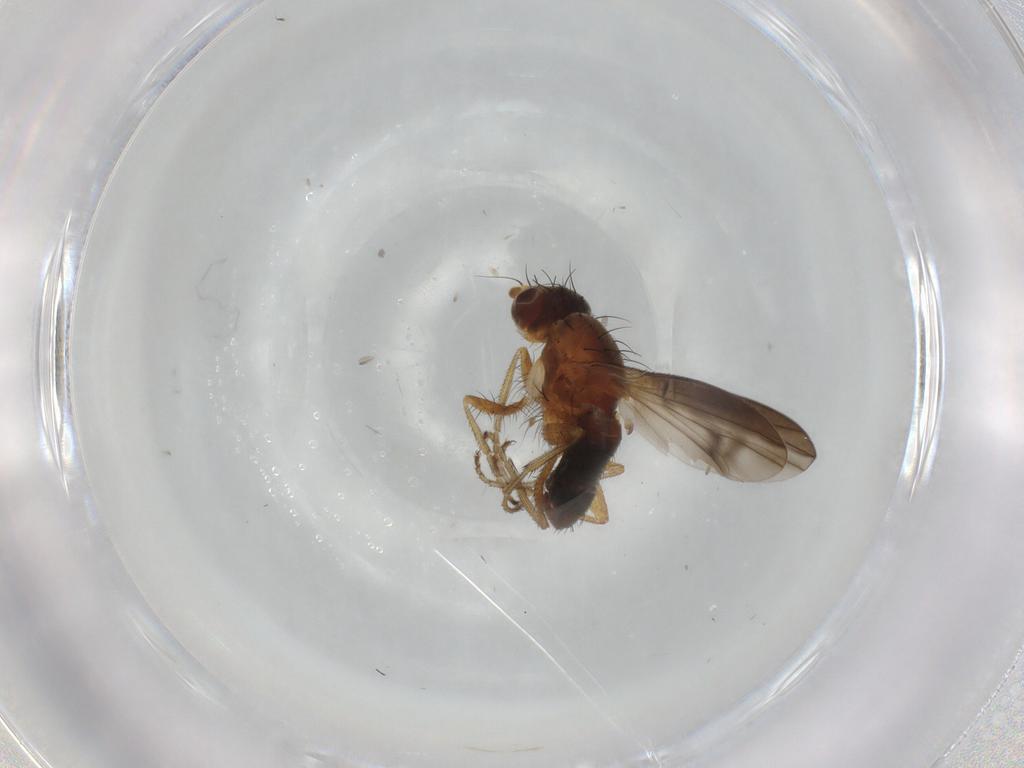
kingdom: Animalia
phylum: Arthropoda
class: Insecta
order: Diptera
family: Heleomyzidae
